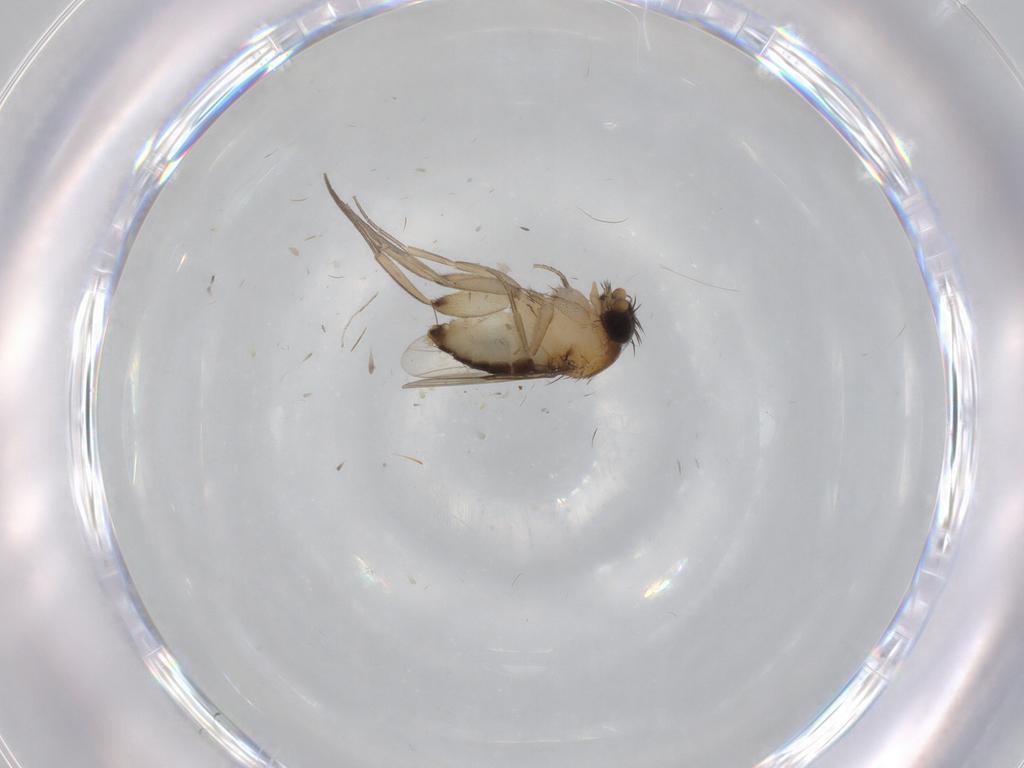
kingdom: Animalia
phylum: Arthropoda
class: Insecta
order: Diptera
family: Phoridae
